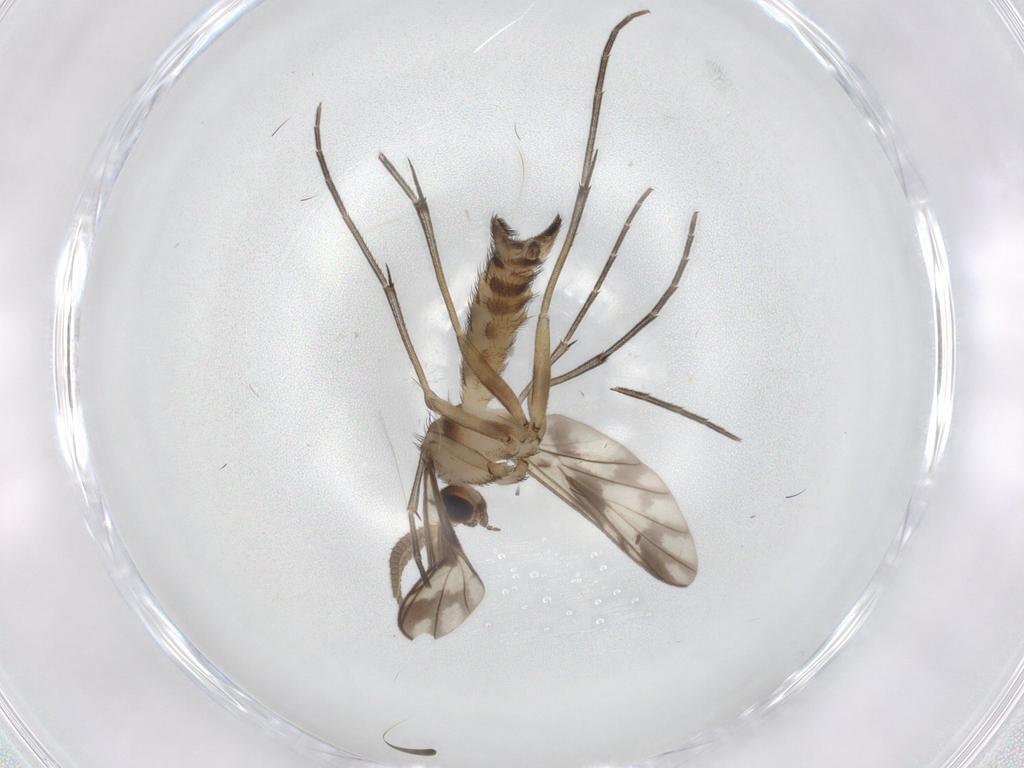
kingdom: Animalia
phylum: Arthropoda
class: Insecta
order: Diptera
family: Keroplatidae
